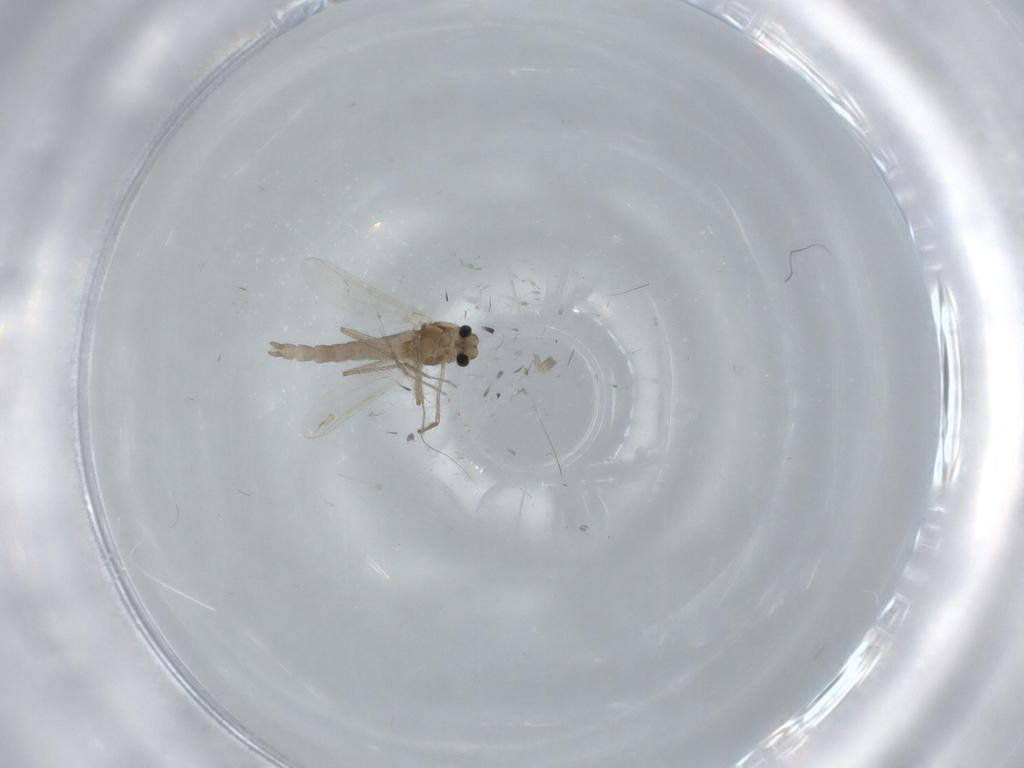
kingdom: Animalia
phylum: Arthropoda
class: Insecta
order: Diptera
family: Chironomidae
